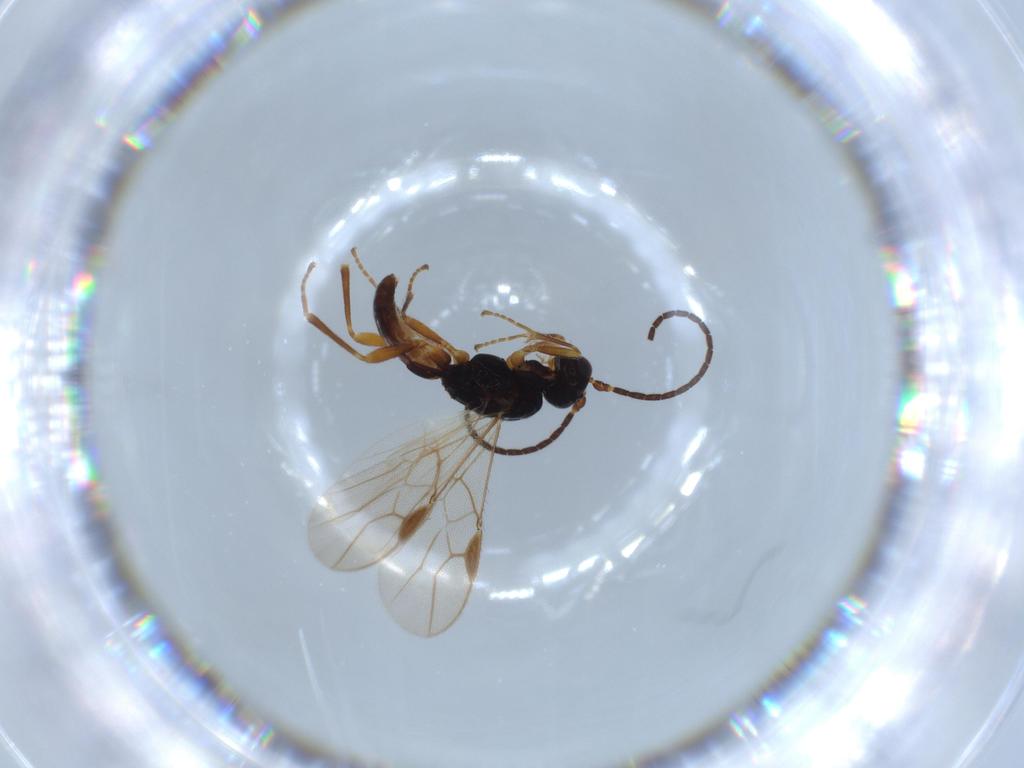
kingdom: Animalia
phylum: Arthropoda
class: Insecta
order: Hymenoptera
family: Braconidae
